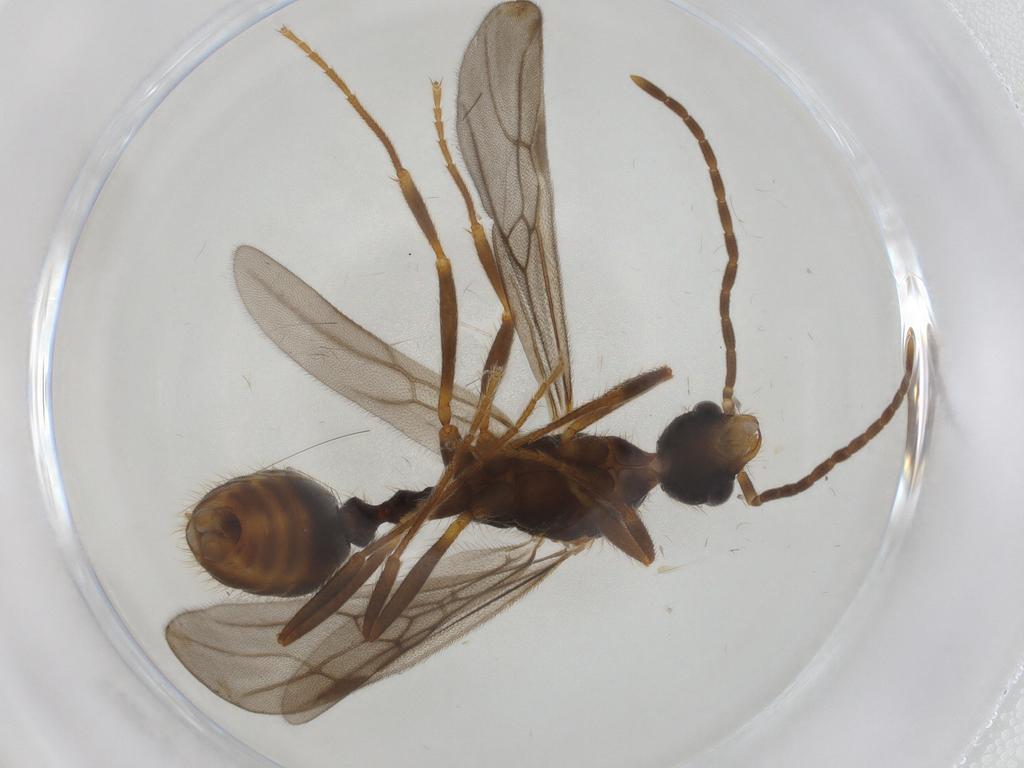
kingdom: Animalia
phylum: Arthropoda
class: Insecta
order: Hymenoptera
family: Formicidae
